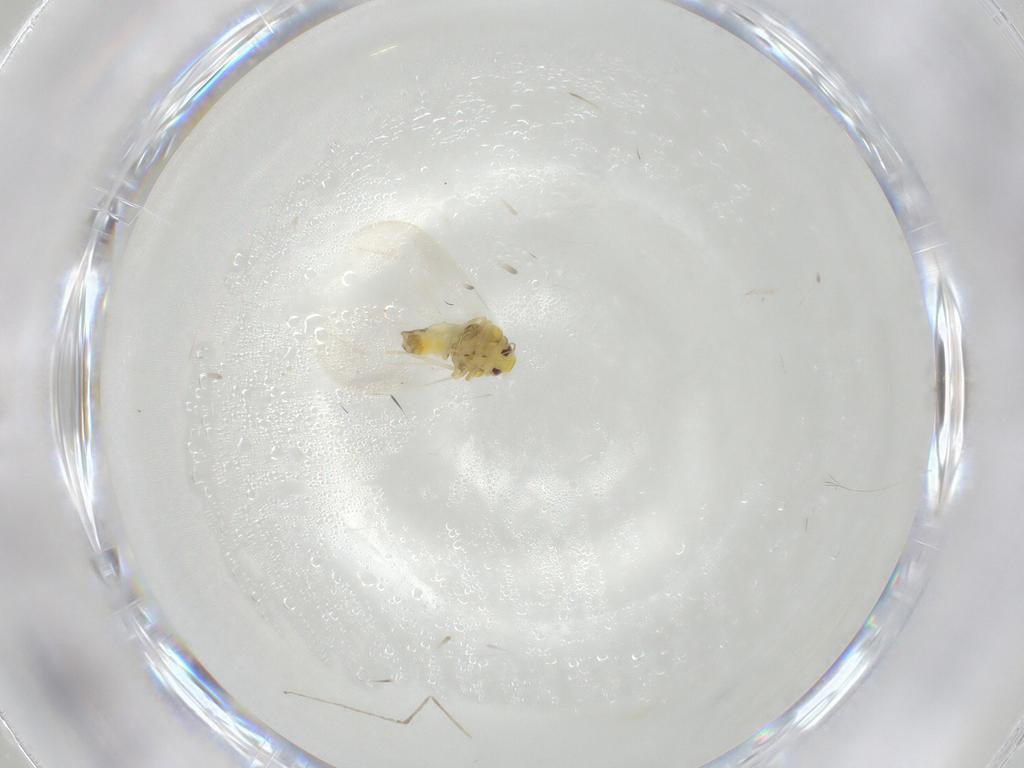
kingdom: Animalia
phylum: Arthropoda
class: Insecta
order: Hemiptera
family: Aleyrodidae
